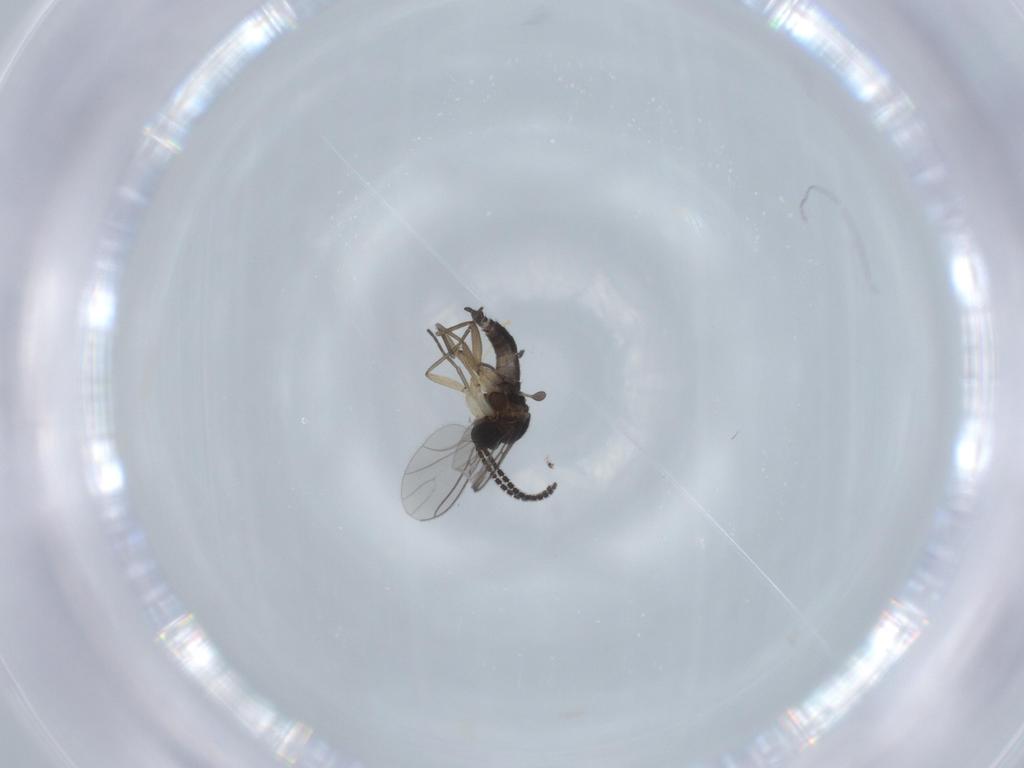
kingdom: Animalia
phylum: Arthropoda
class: Insecta
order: Diptera
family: Sciaridae
